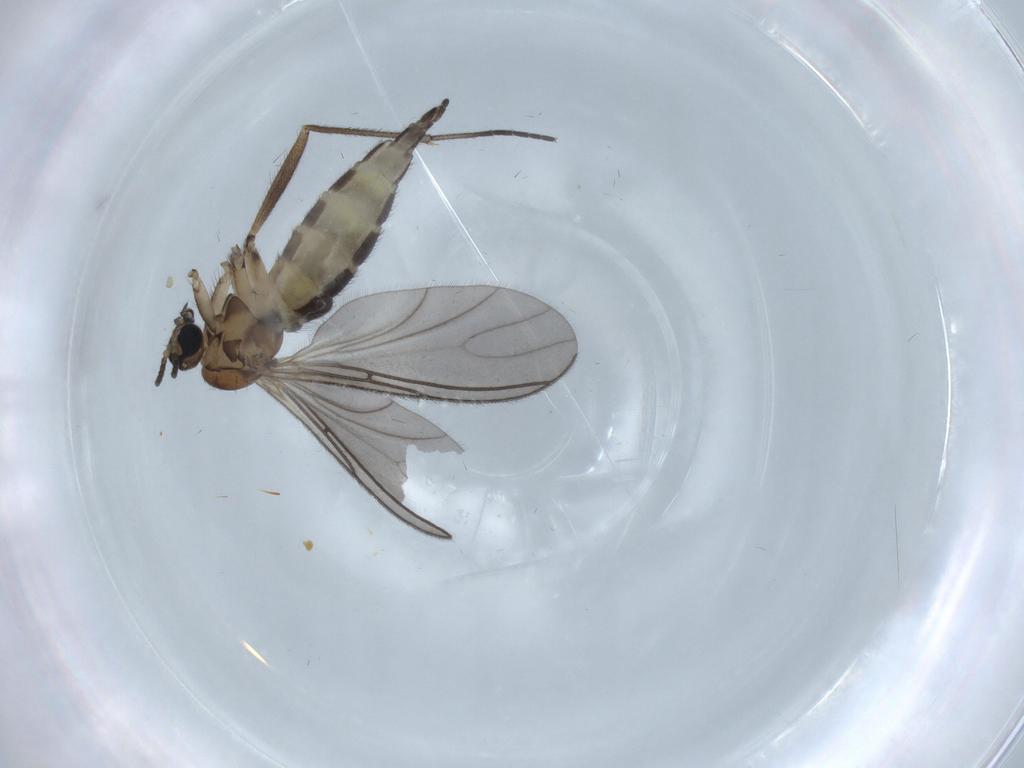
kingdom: Animalia
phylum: Arthropoda
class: Insecta
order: Diptera
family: Sciaridae
